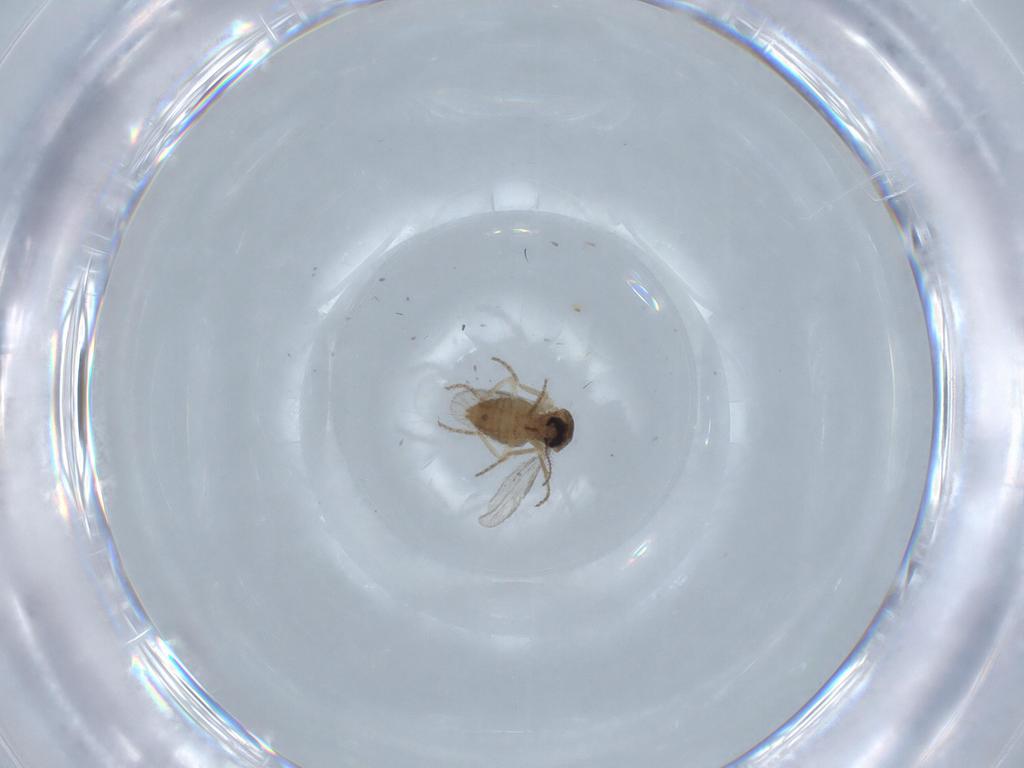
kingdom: Animalia
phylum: Arthropoda
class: Insecta
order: Diptera
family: Ceratopogonidae
